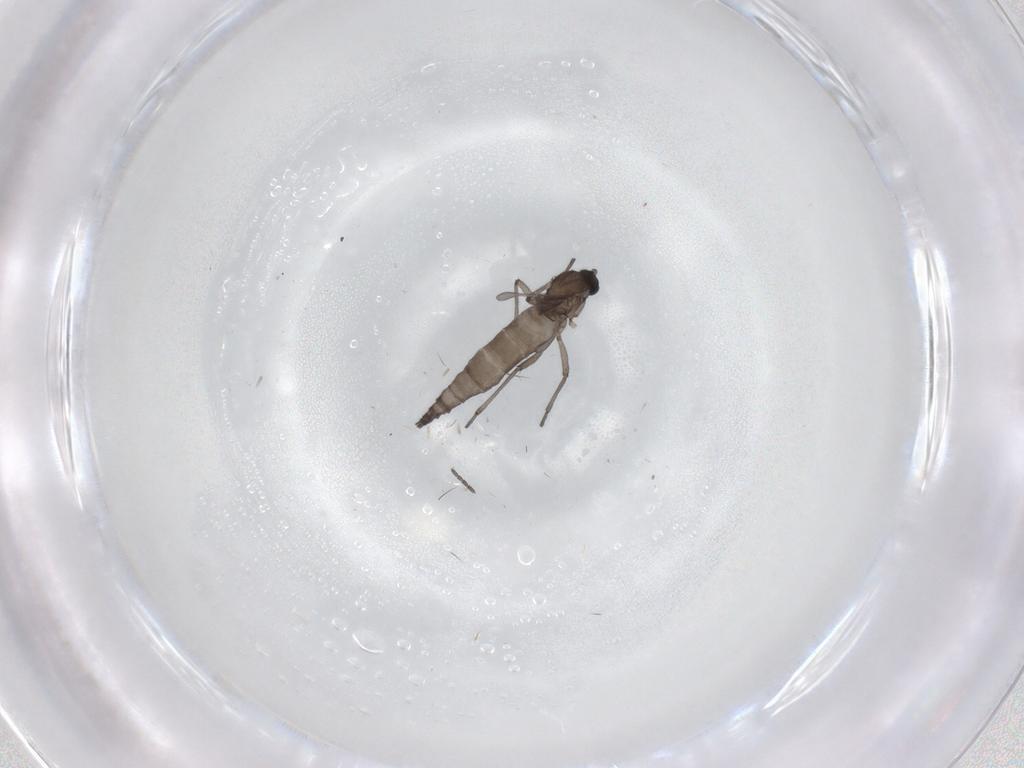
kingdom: Animalia
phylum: Arthropoda
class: Insecta
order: Diptera
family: Sciaridae
